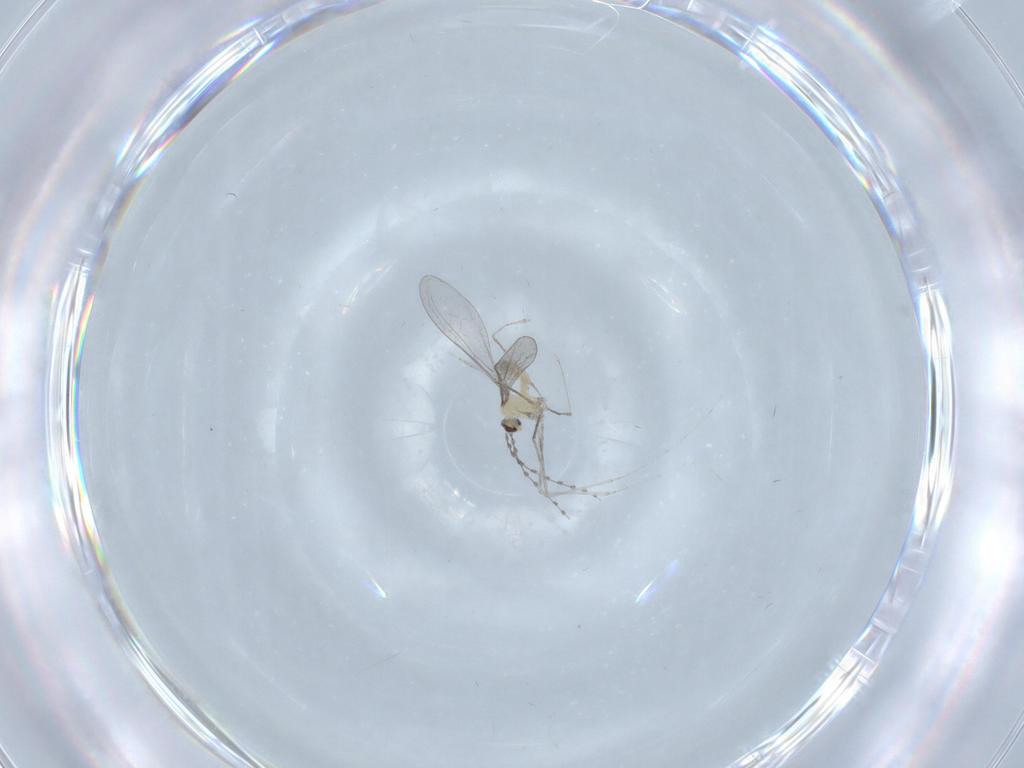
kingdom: Animalia
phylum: Arthropoda
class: Insecta
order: Diptera
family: Cecidomyiidae
